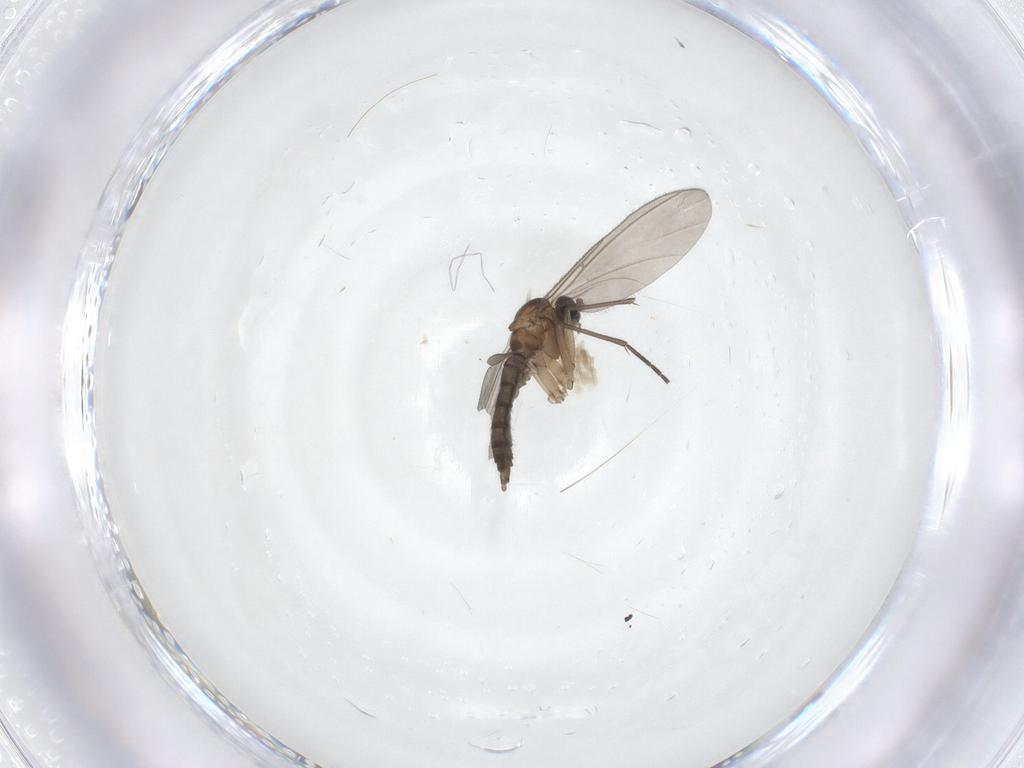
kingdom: Animalia
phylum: Arthropoda
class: Insecta
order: Diptera
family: Sciaridae
